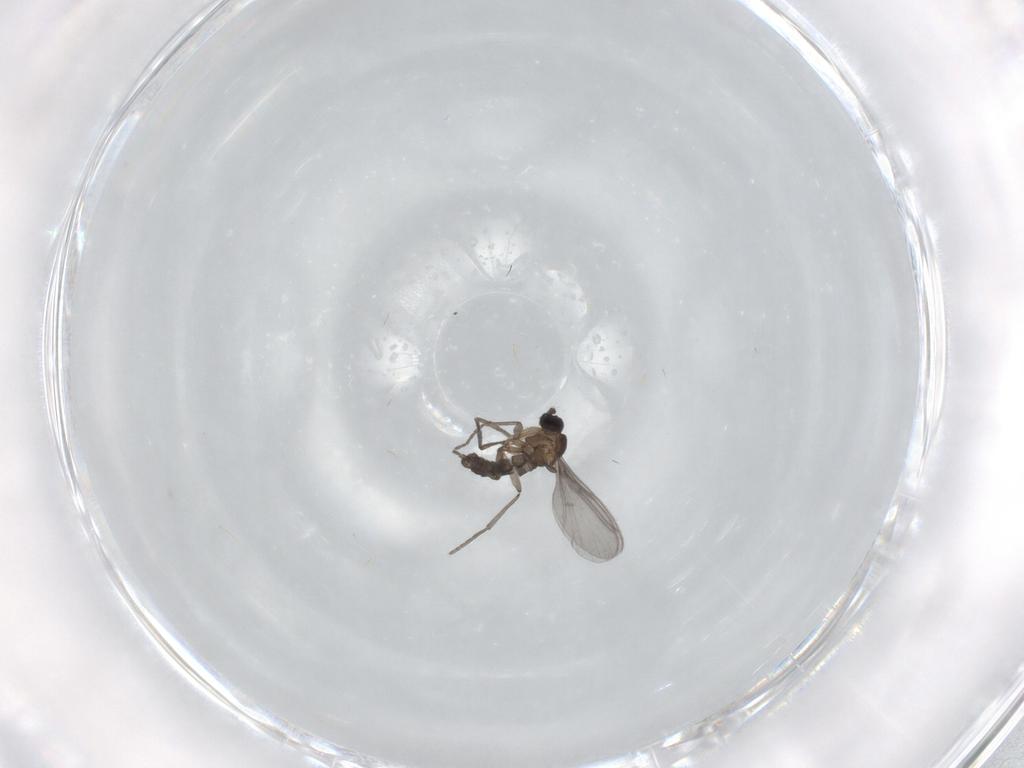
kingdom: Animalia
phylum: Arthropoda
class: Insecta
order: Diptera
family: Sciaridae
